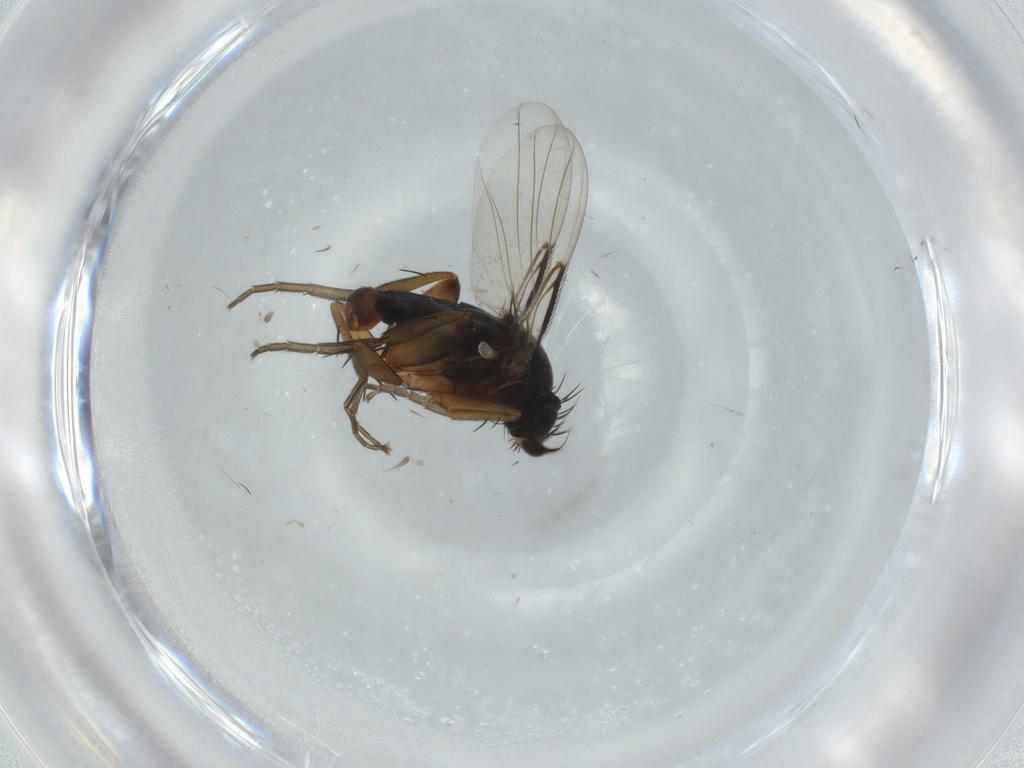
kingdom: Animalia
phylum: Arthropoda
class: Insecta
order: Diptera
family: Phoridae
